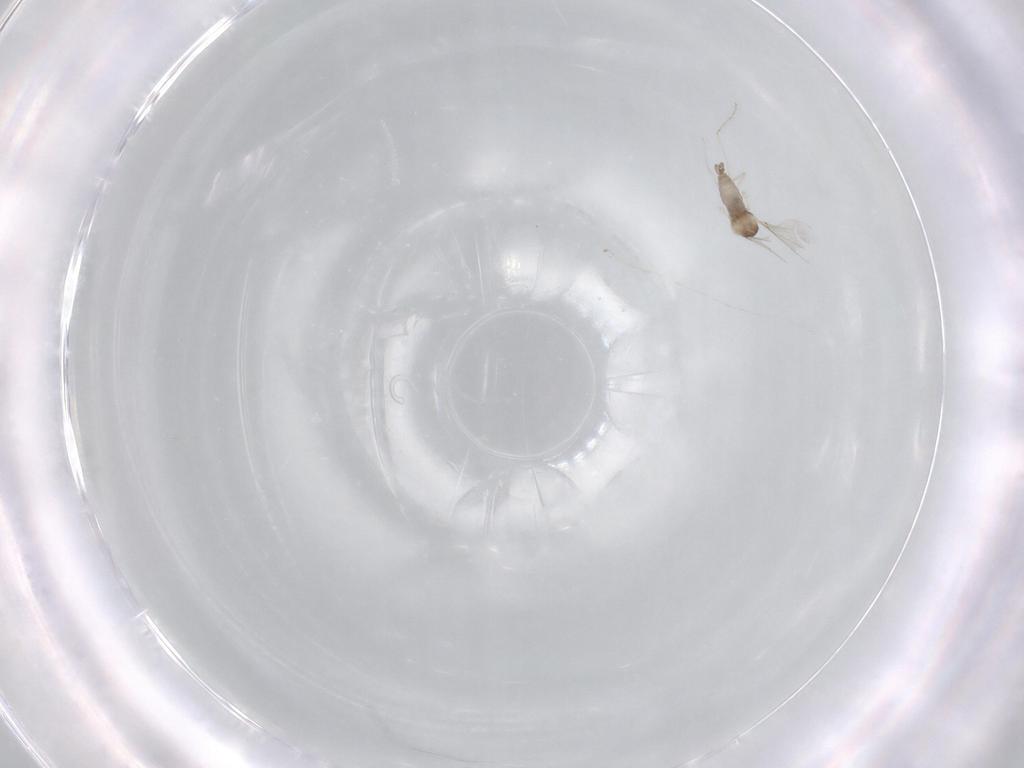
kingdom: Animalia
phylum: Arthropoda
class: Insecta
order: Diptera
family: Cecidomyiidae
